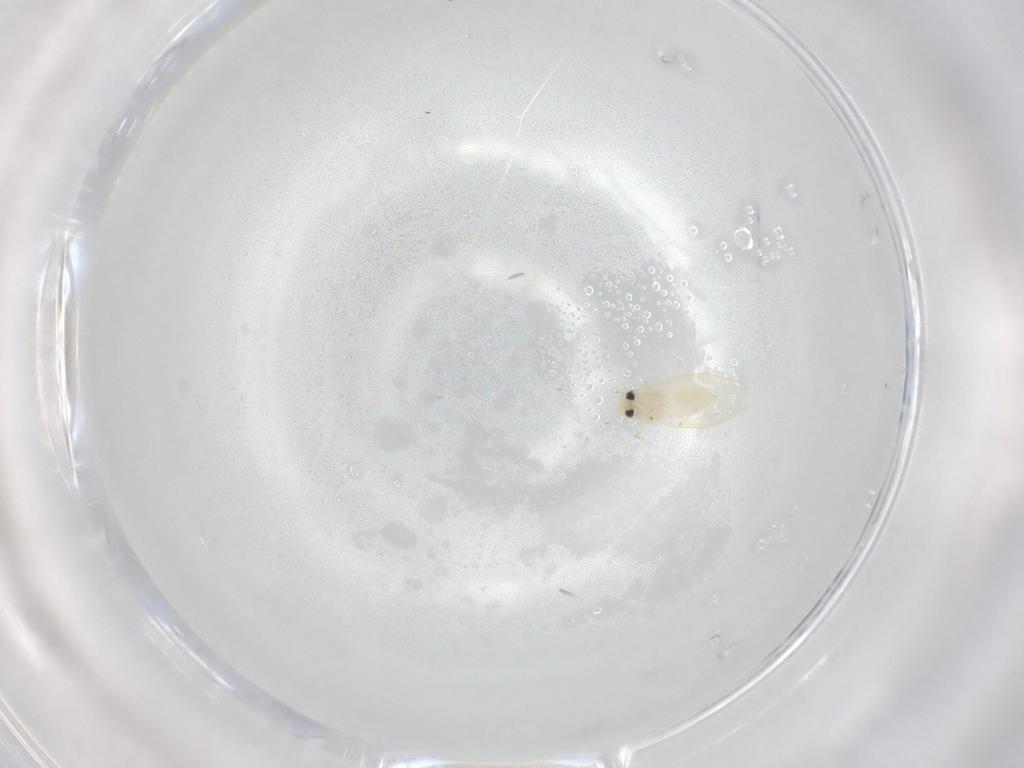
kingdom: Animalia
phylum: Arthropoda
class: Insecta
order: Hemiptera
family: Aleyrodidae
